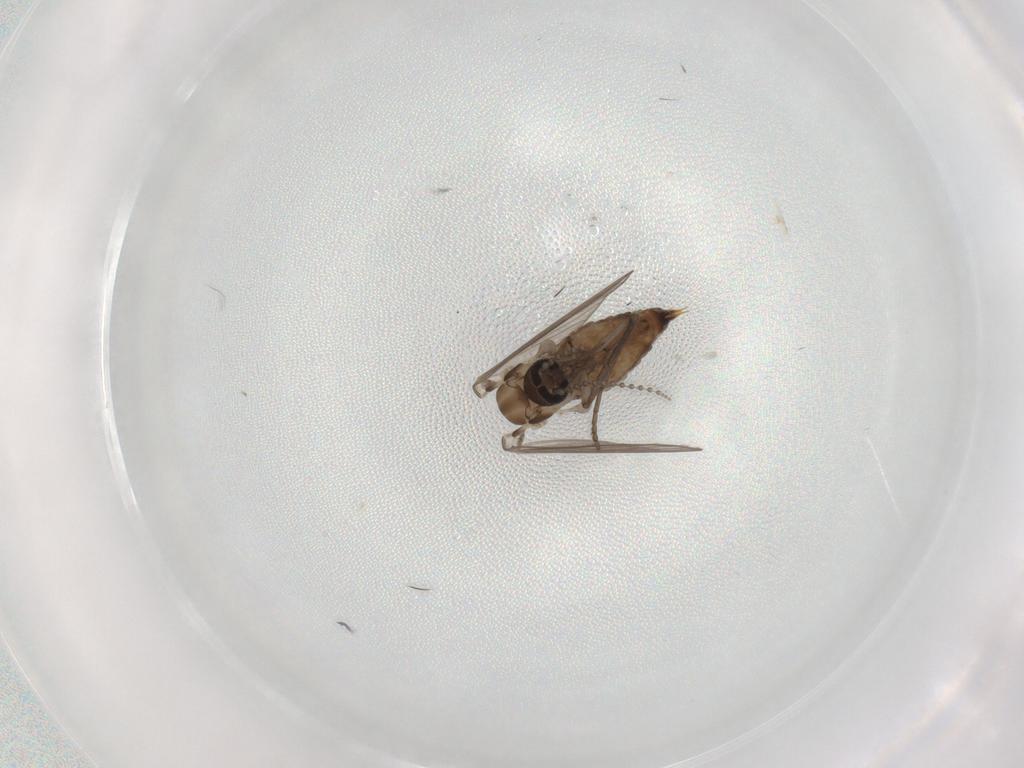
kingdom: Animalia
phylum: Arthropoda
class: Insecta
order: Diptera
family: Psychodidae
